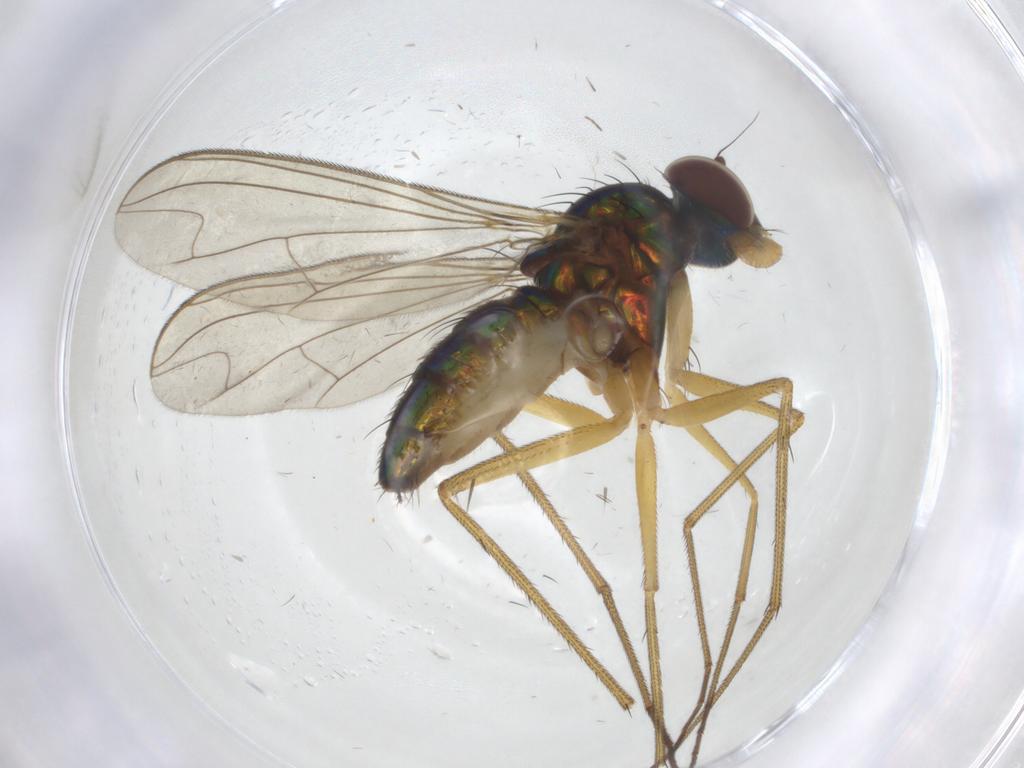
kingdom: Animalia
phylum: Arthropoda
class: Insecta
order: Diptera
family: Dolichopodidae
